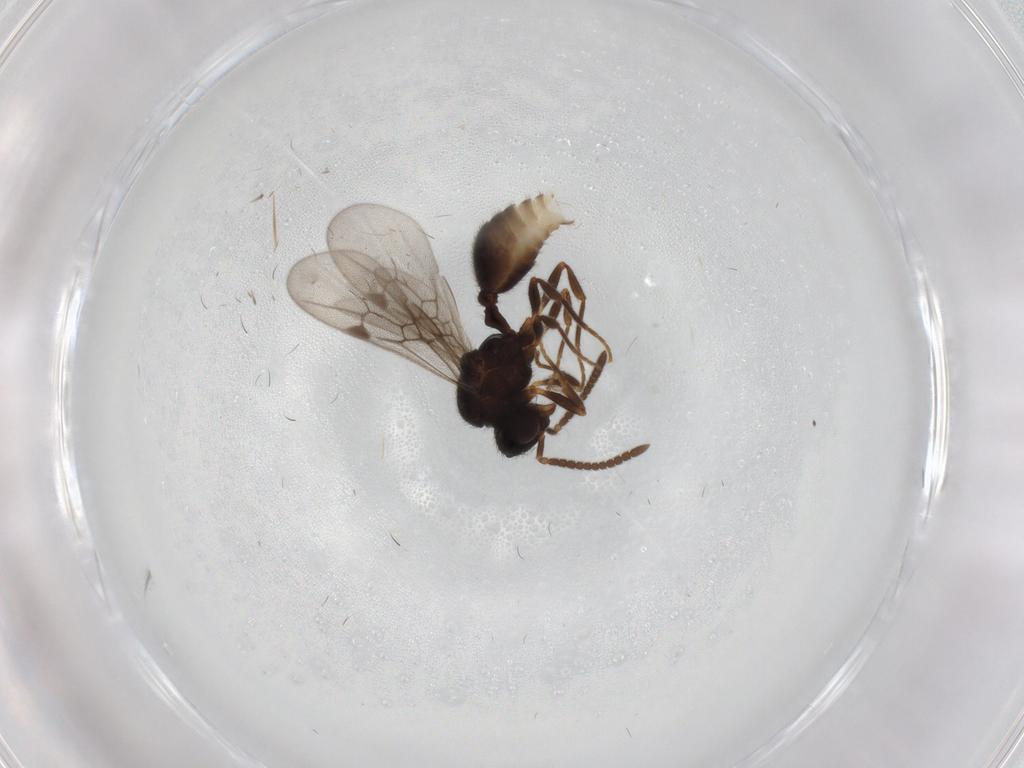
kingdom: Animalia
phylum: Arthropoda
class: Insecta
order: Hymenoptera
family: Formicidae
